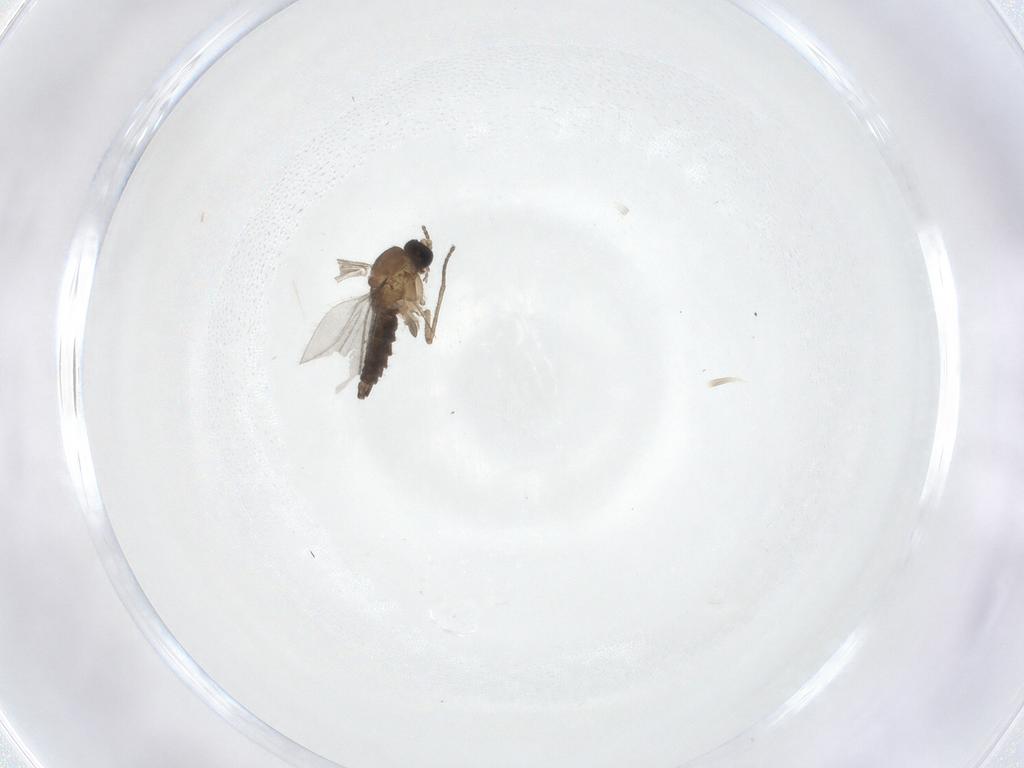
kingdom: Animalia
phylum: Arthropoda
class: Insecta
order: Diptera
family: Sciaridae
